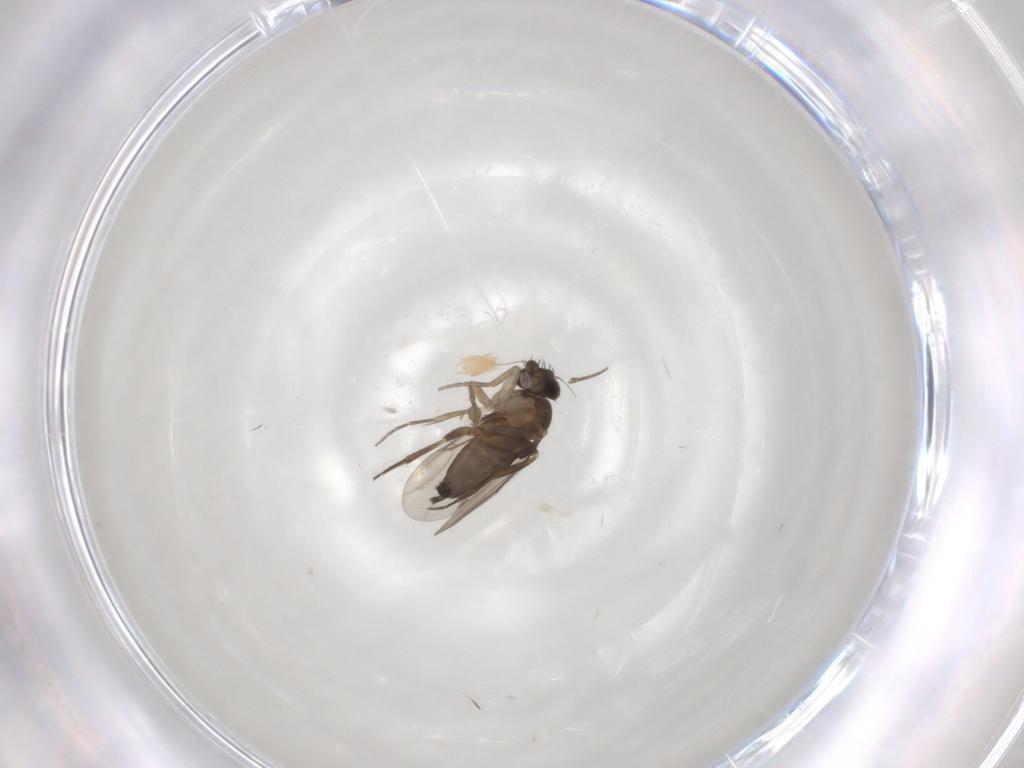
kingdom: Animalia
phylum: Arthropoda
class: Insecta
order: Diptera
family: Phoridae
